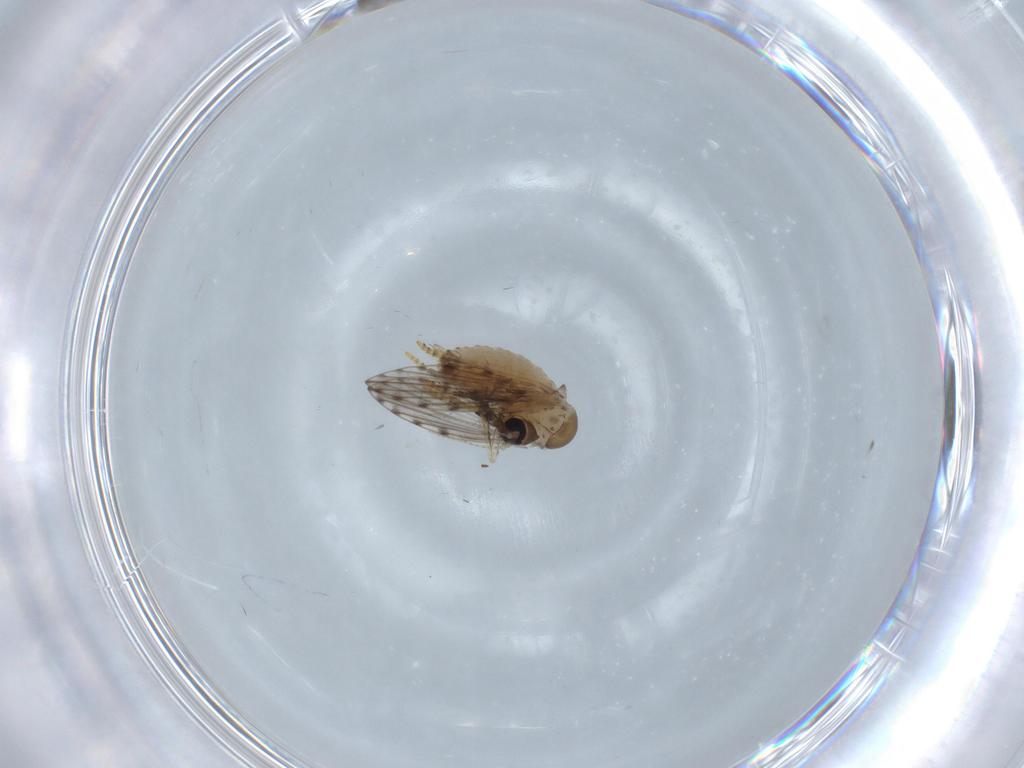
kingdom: Animalia
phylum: Arthropoda
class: Insecta
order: Diptera
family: Psychodidae
